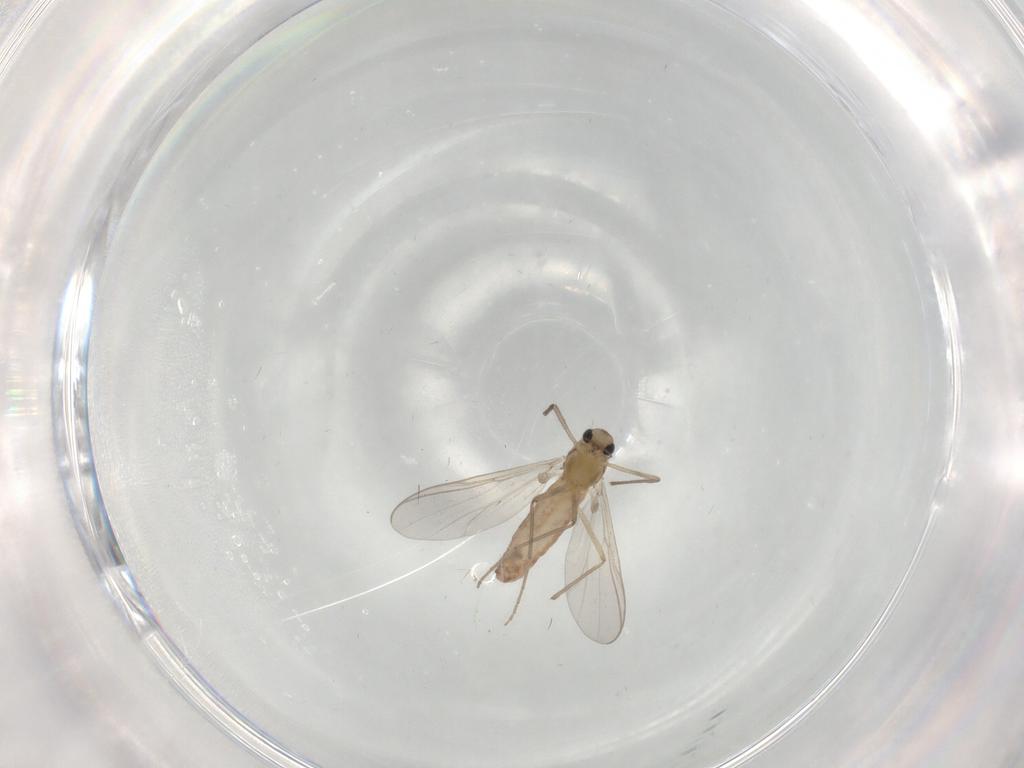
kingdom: Animalia
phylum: Arthropoda
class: Insecta
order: Diptera
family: Chironomidae
